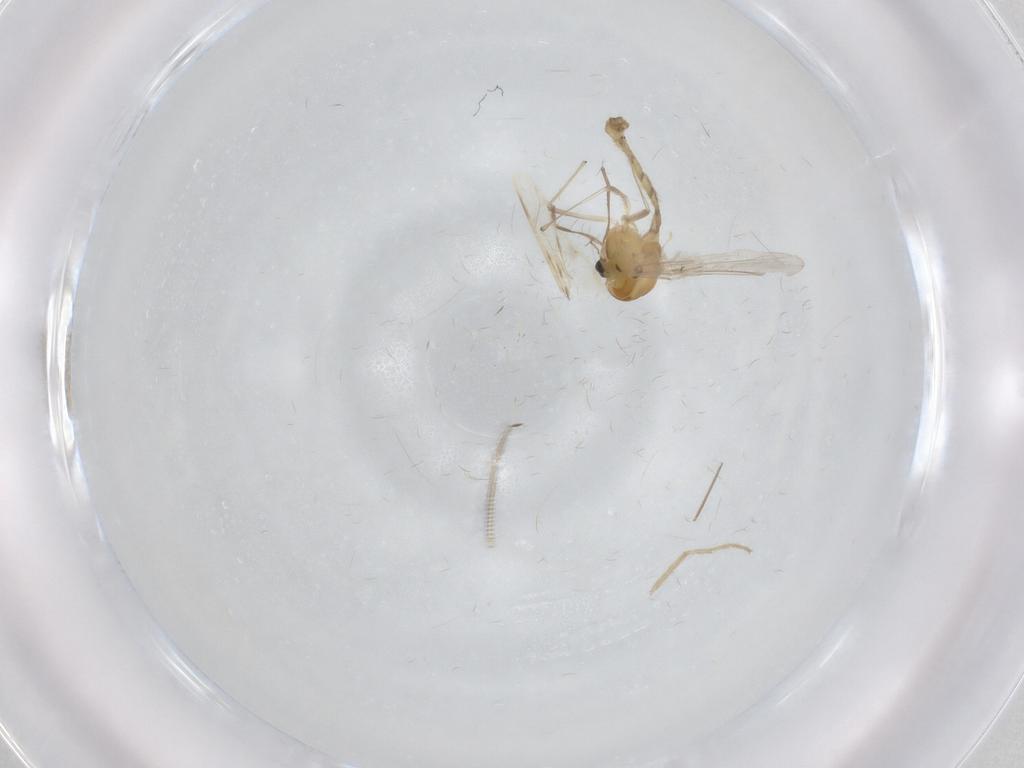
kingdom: Animalia
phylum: Arthropoda
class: Insecta
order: Diptera
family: Chironomidae
